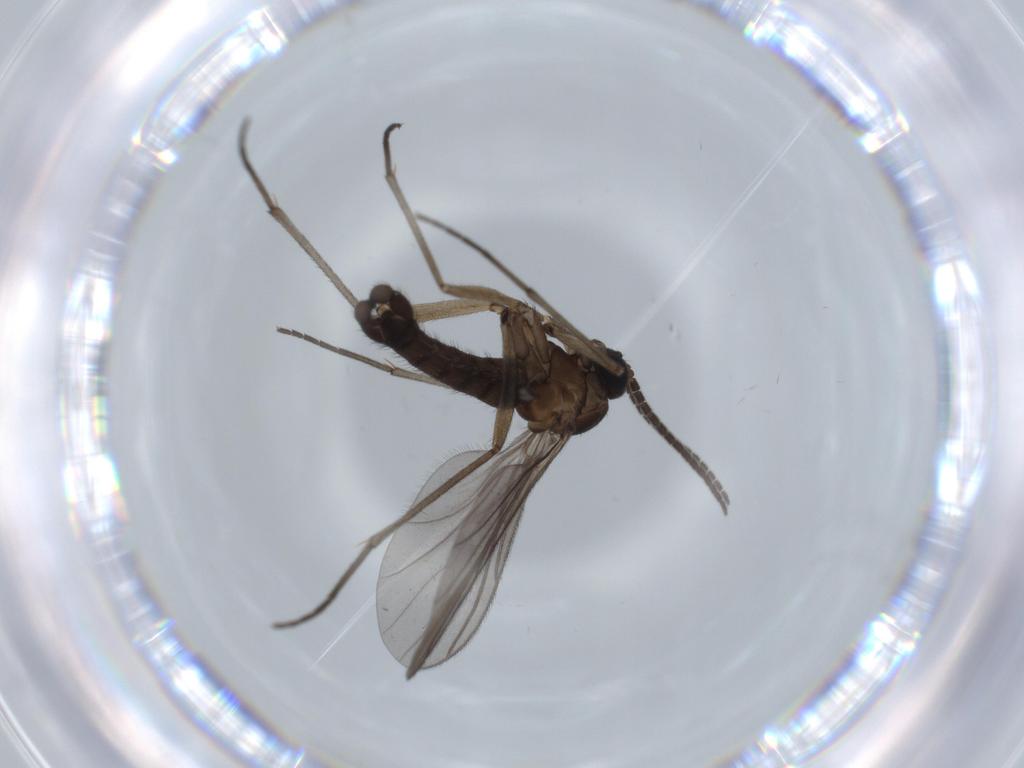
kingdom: Animalia
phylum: Arthropoda
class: Insecta
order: Diptera
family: Sciaridae
